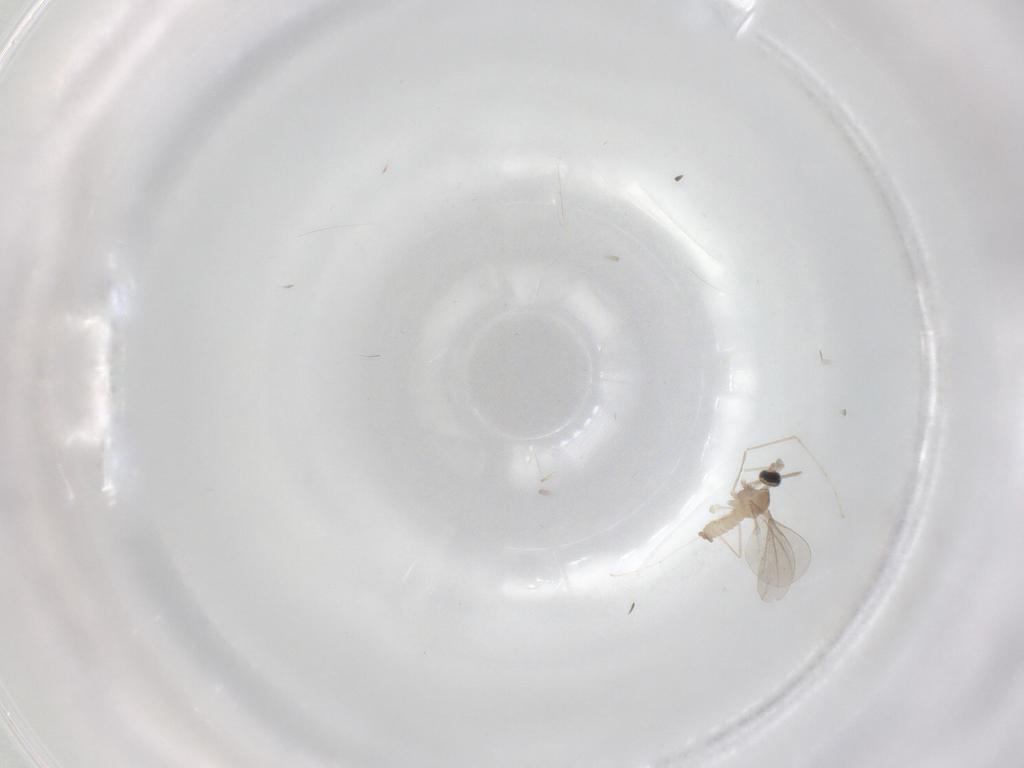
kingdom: Animalia
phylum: Arthropoda
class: Insecta
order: Diptera
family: Cecidomyiidae
